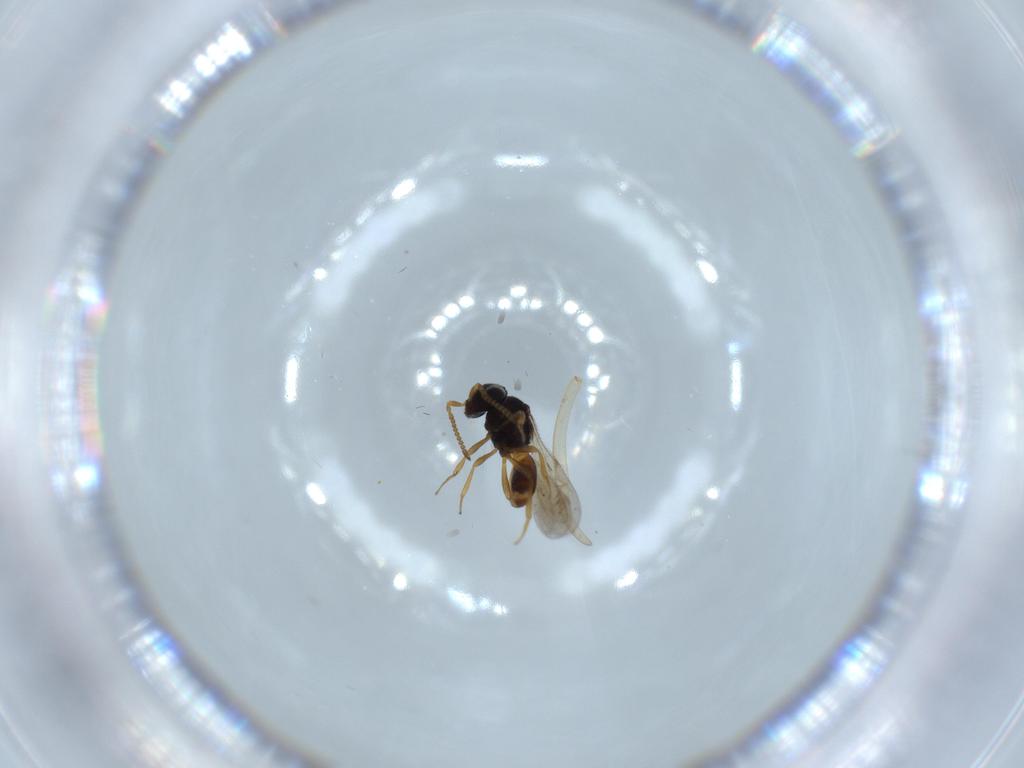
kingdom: Animalia
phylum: Arthropoda
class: Insecta
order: Hymenoptera
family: Scelionidae
